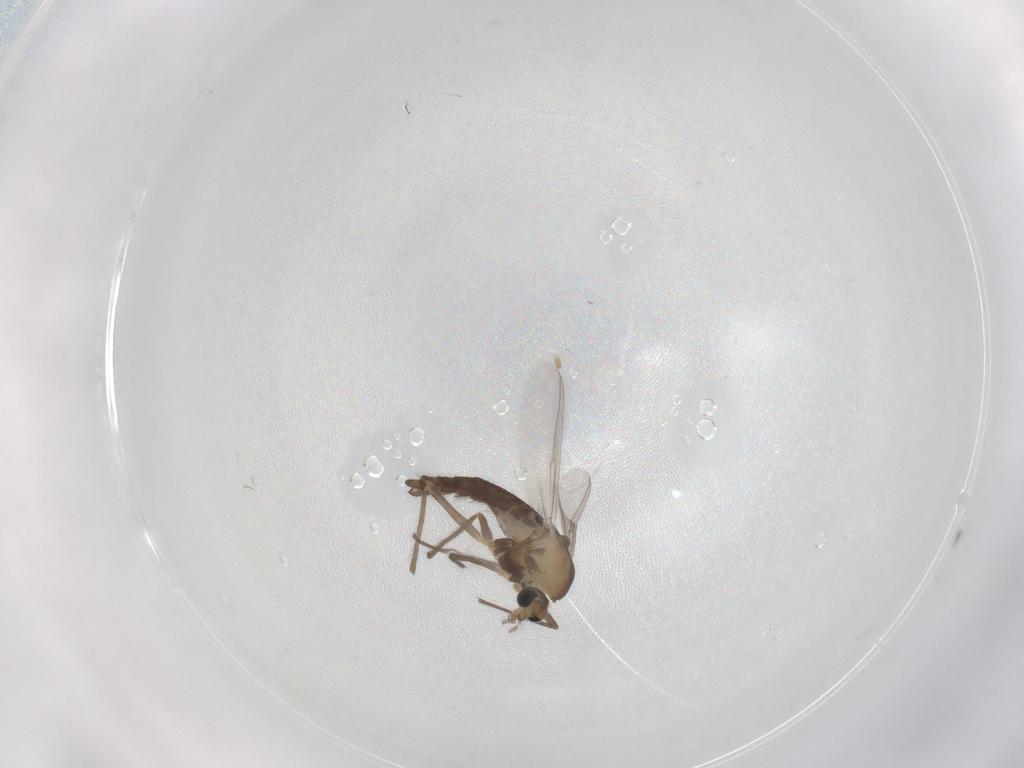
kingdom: Animalia
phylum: Arthropoda
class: Insecta
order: Diptera
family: Chironomidae
